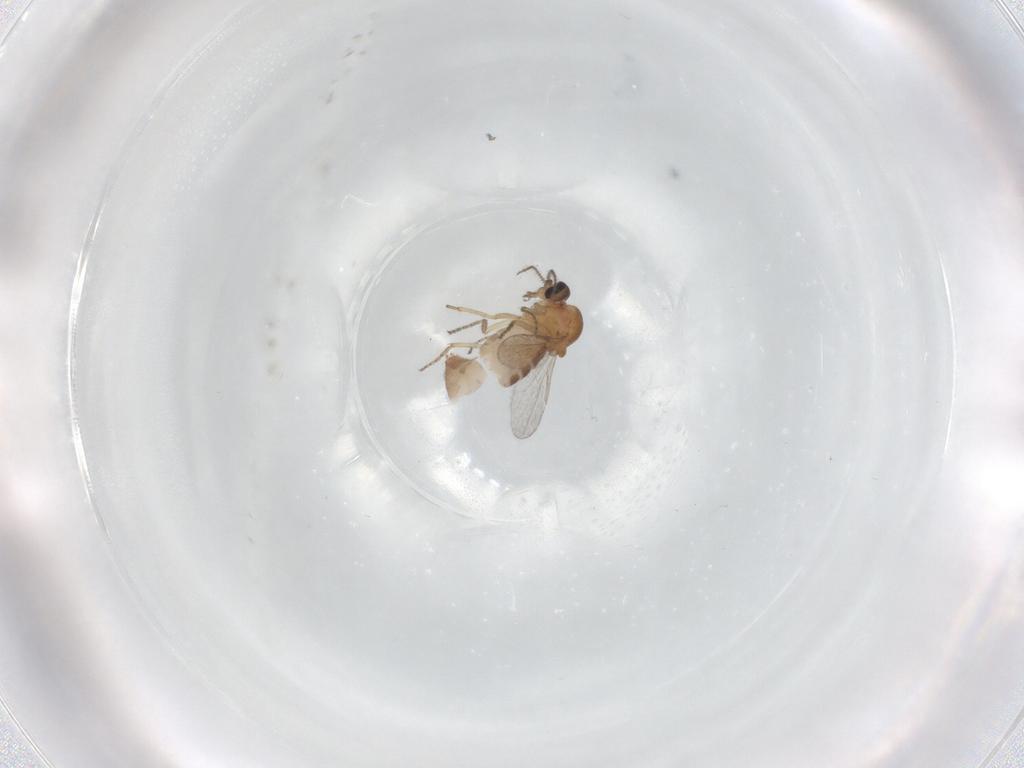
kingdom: Animalia
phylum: Arthropoda
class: Insecta
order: Diptera
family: Ceratopogonidae
